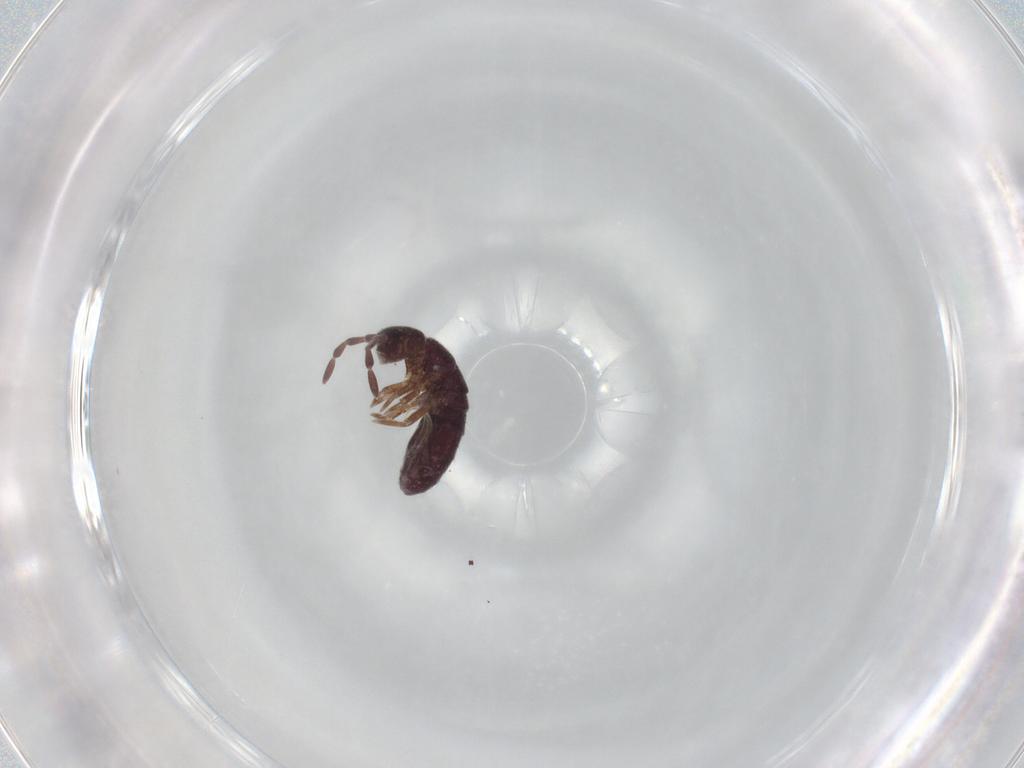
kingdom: Animalia
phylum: Arthropoda
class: Collembola
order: Entomobryomorpha
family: Isotomidae
